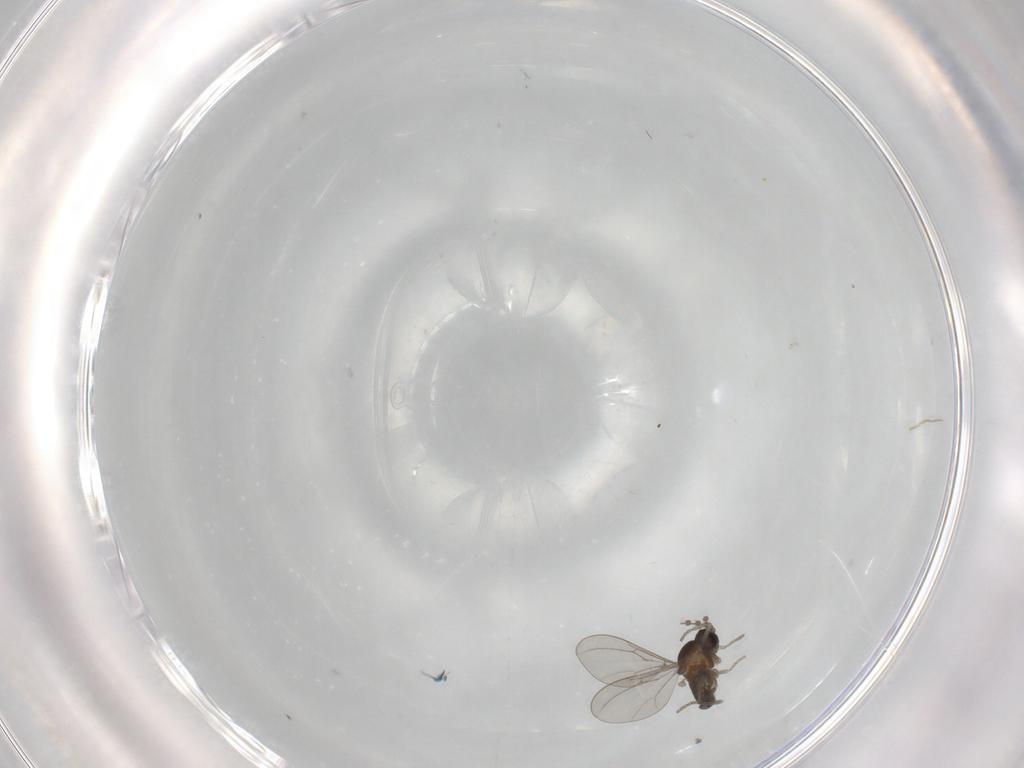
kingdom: Animalia
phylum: Arthropoda
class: Insecta
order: Diptera
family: Cecidomyiidae
